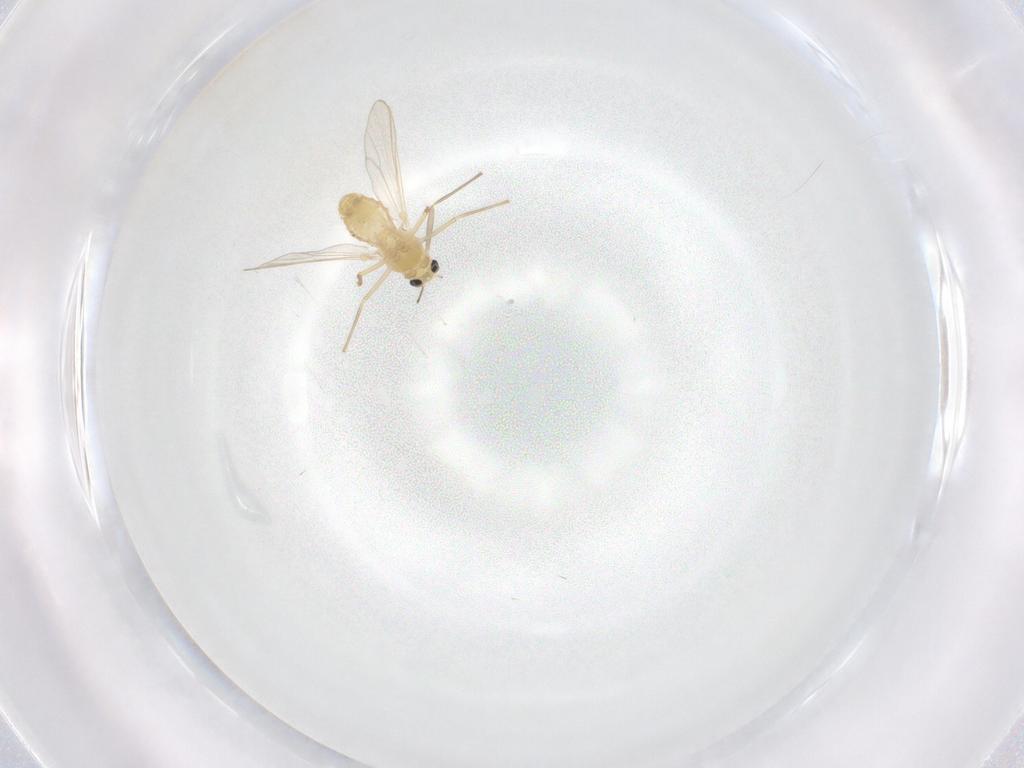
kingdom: Animalia
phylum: Arthropoda
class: Insecta
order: Diptera
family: Chironomidae
